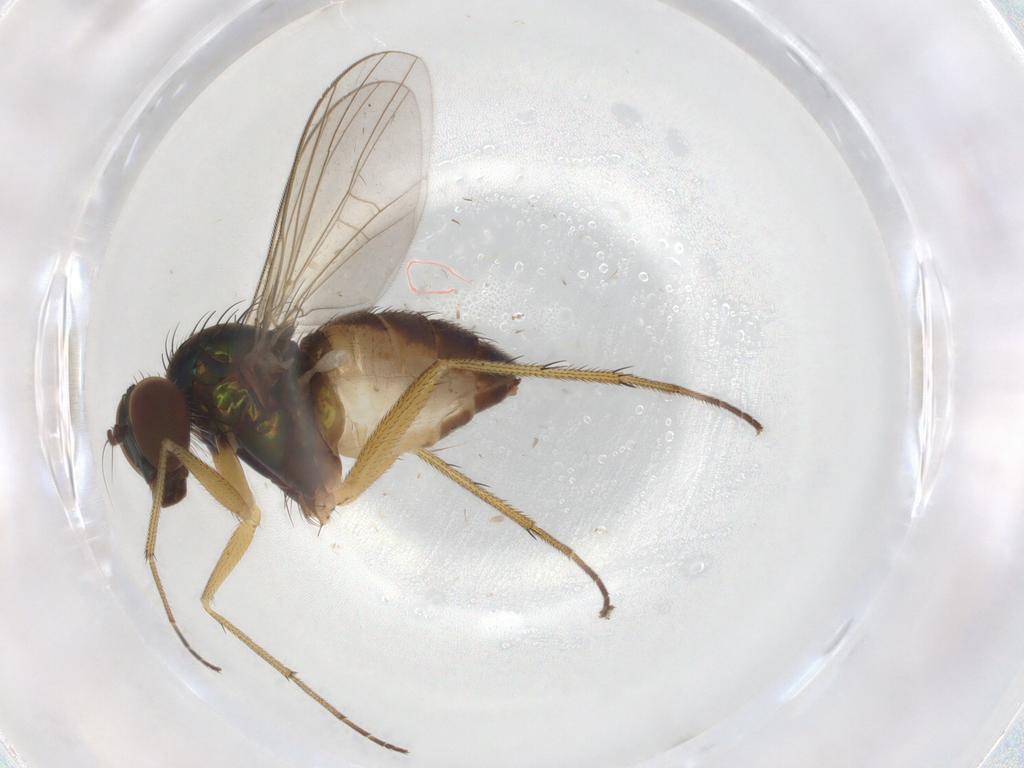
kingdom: Animalia
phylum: Arthropoda
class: Insecta
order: Diptera
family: Dolichopodidae
